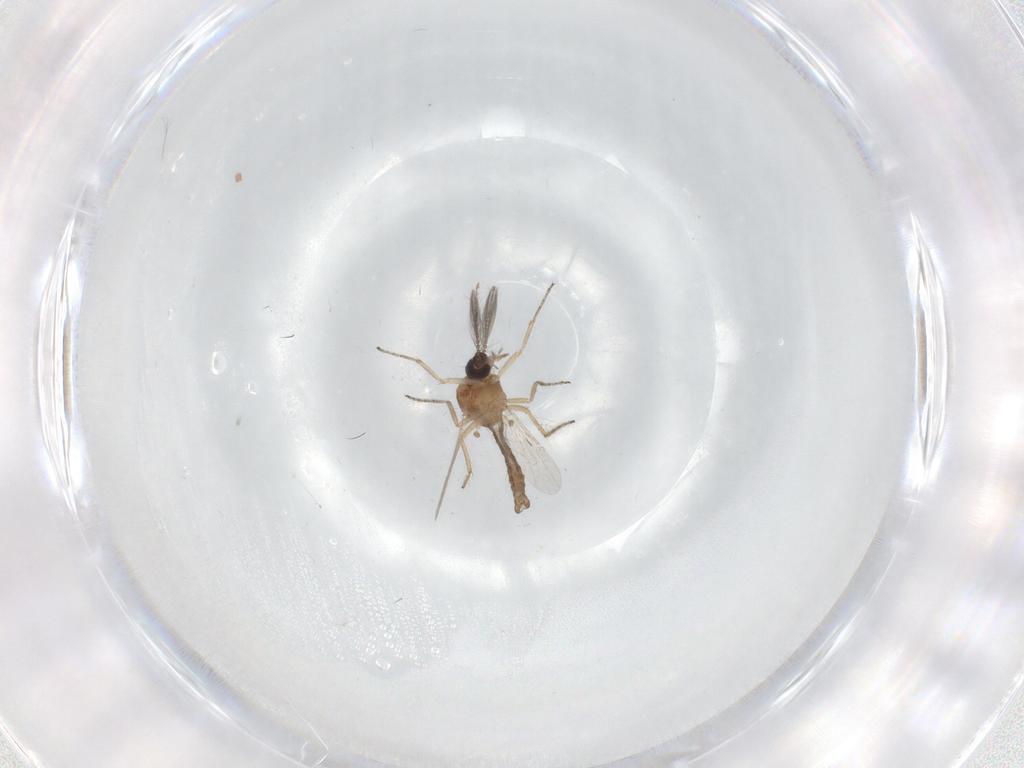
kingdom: Animalia
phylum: Arthropoda
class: Insecta
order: Diptera
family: Ceratopogonidae
